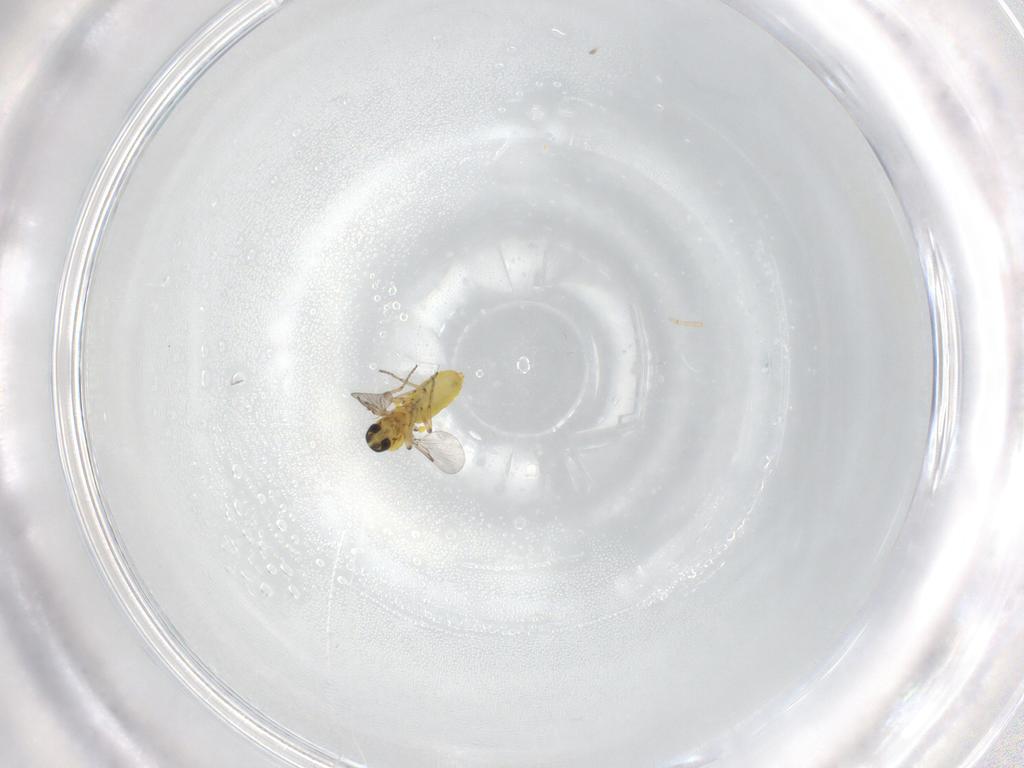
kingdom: Animalia
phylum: Arthropoda
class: Insecta
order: Diptera
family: Ceratopogonidae
